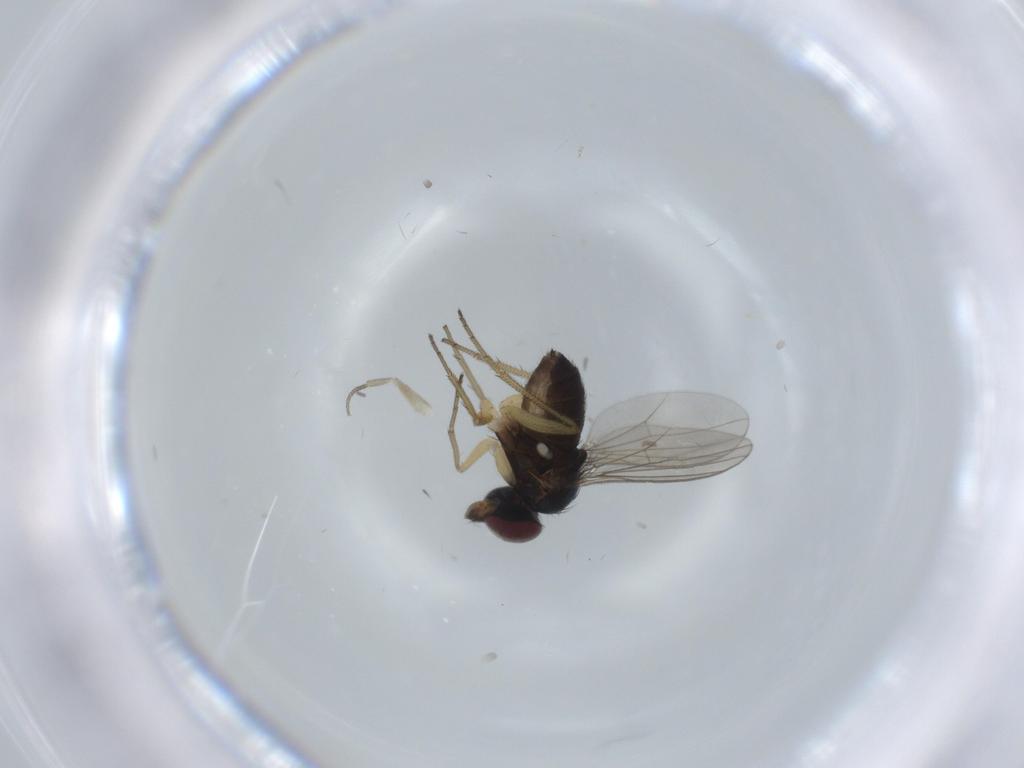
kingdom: Animalia
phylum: Arthropoda
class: Insecta
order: Diptera
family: Dolichopodidae
